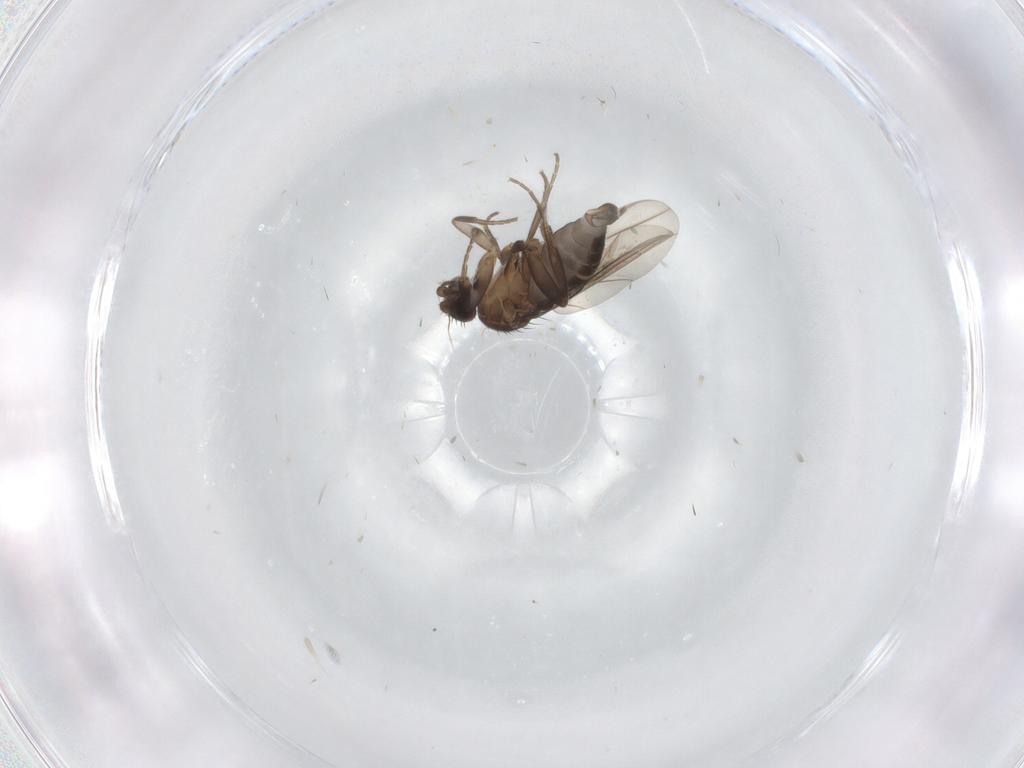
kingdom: Animalia
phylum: Arthropoda
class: Insecta
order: Diptera
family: Phoridae
